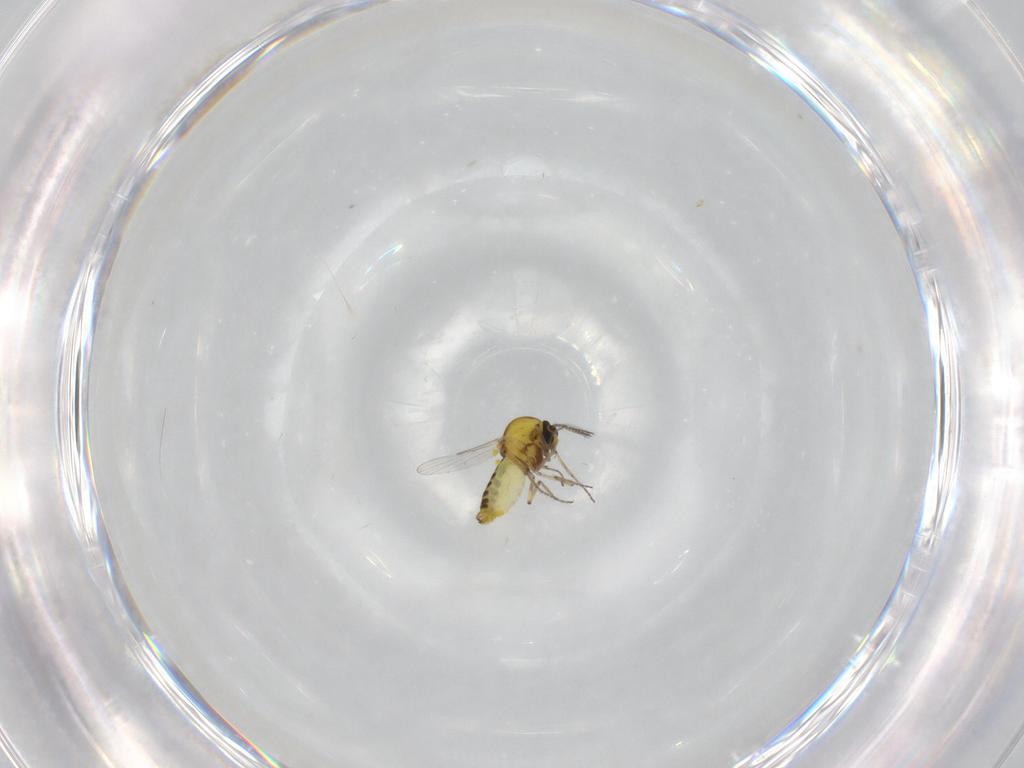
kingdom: Animalia
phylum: Arthropoda
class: Insecta
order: Diptera
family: Ceratopogonidae
